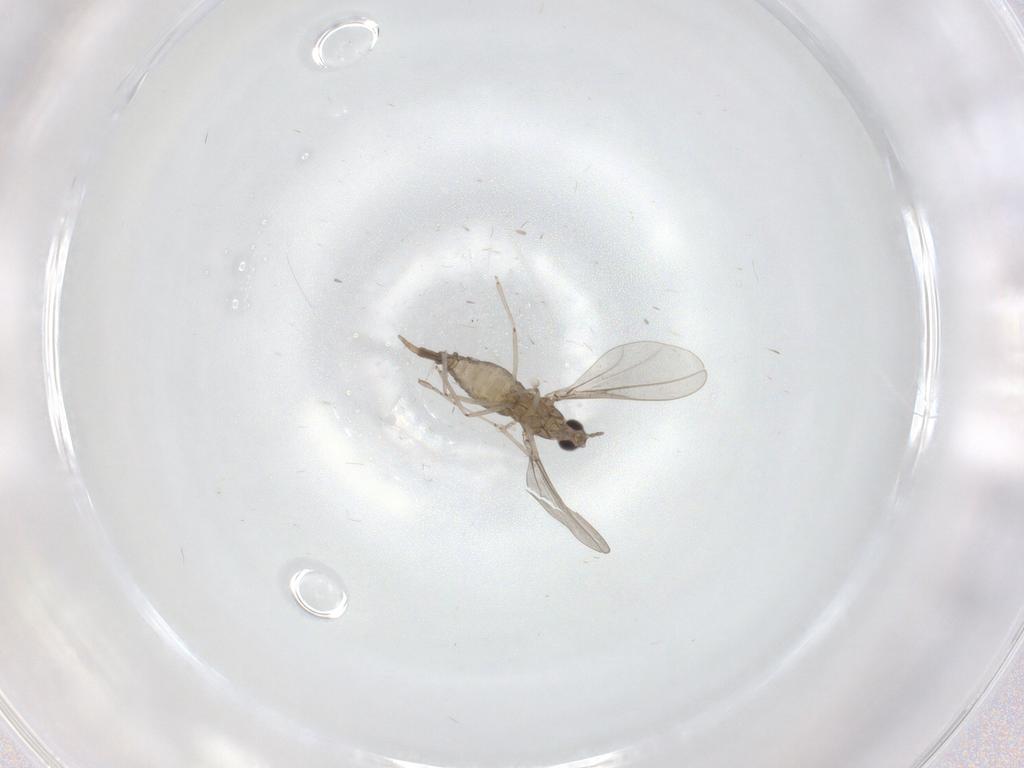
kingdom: Animalia
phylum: Arthropoda
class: Insecta
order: Diptera
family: Cecidomyiidae
